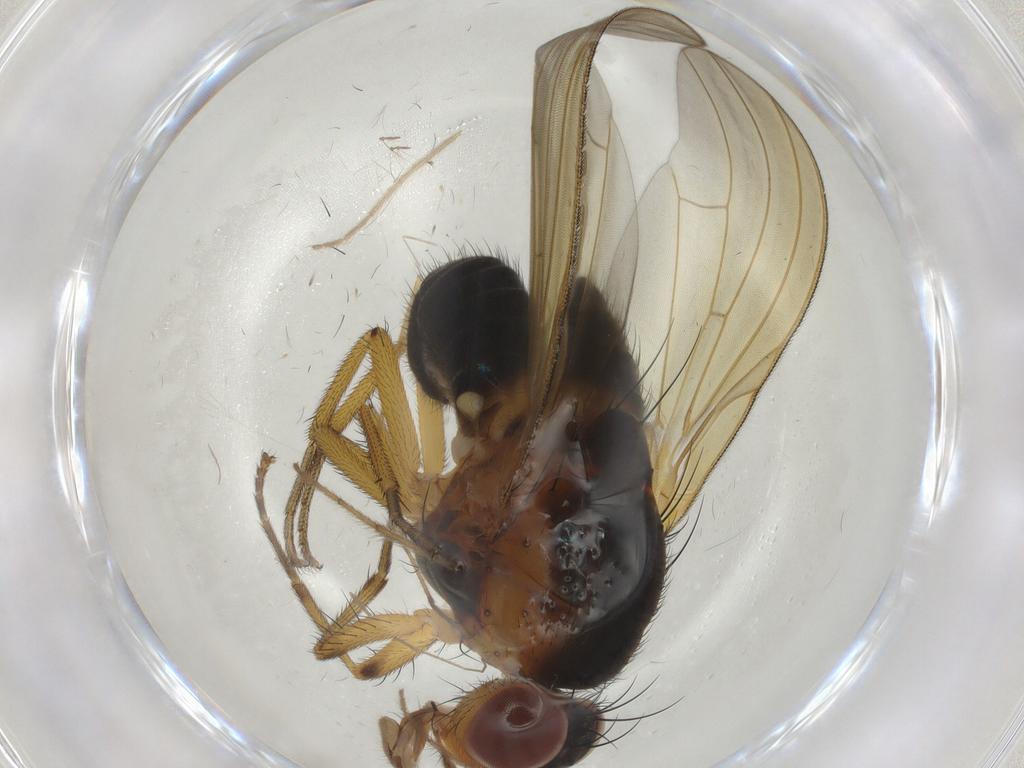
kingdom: Animalia
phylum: Arthropoda
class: Insecta
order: Diptera
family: Chironomidae
